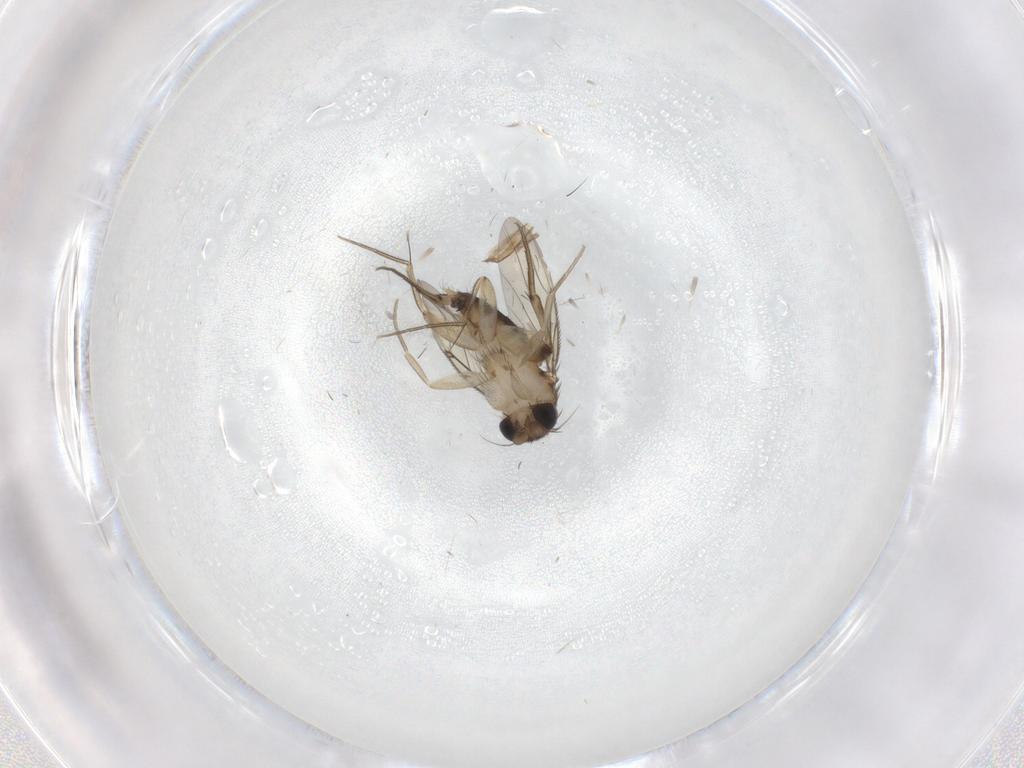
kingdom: Animalia
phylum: Arthropoda
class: Insecta
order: Diptera
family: Phoridae
